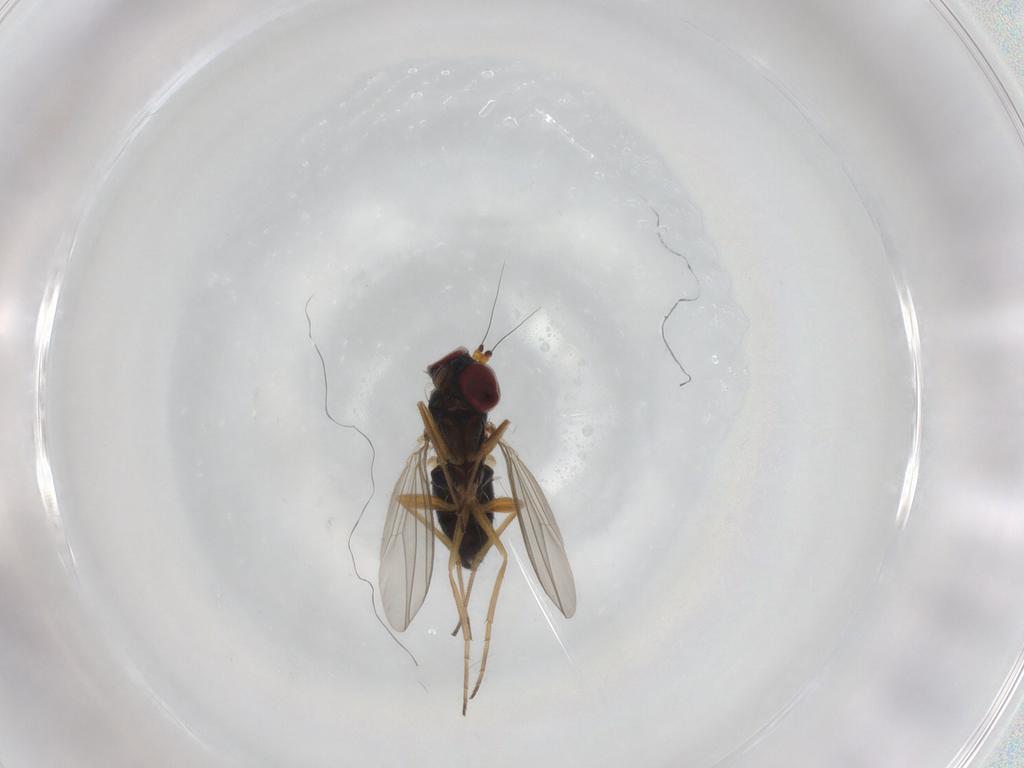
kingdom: Animalia
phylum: Arthropoda
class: Insecta
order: Diptera
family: Dolichopodidae
